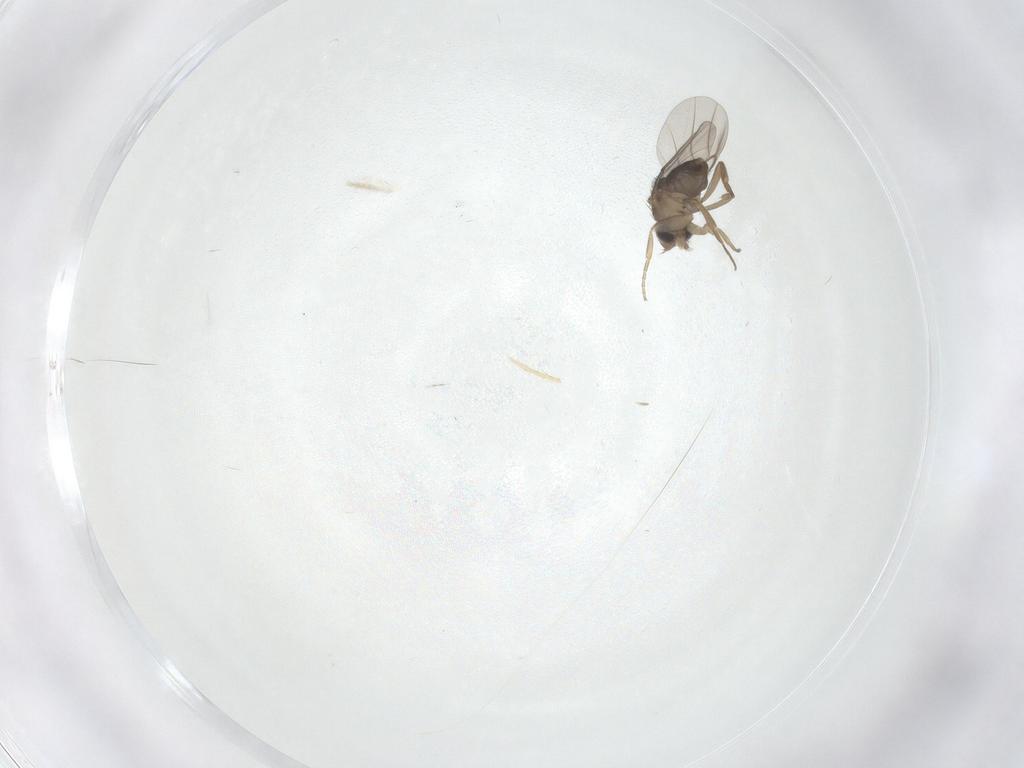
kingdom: Animalia
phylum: Arthropoda
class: Insecta
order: Diptera
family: Phoridae
